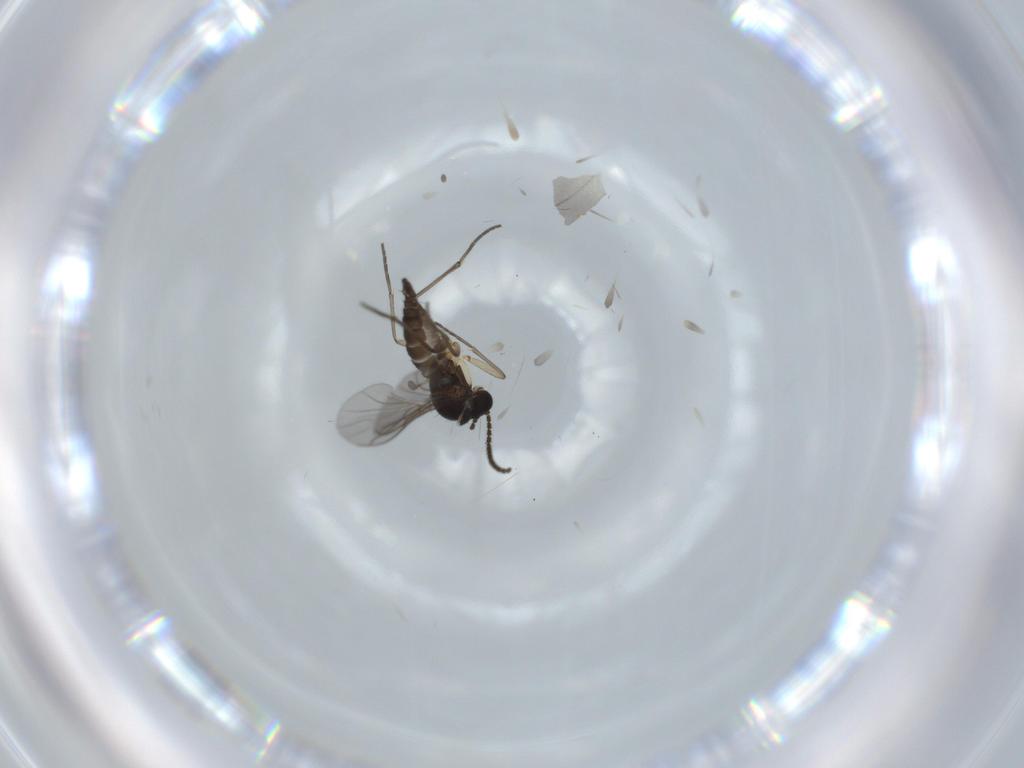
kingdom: Animalia
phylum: Arthropoda
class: Insecta
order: Diptera
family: Sciaridae
